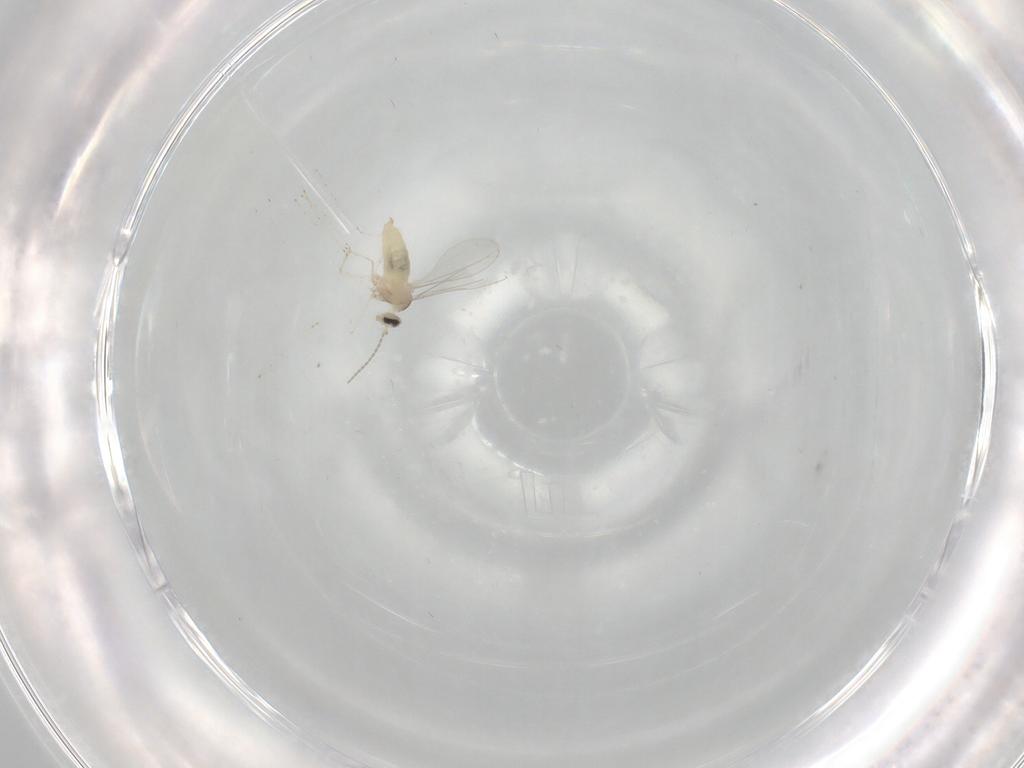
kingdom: Animalia
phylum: Arthropoda
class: Insecta
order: Diptera
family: Cecidomyiidae
